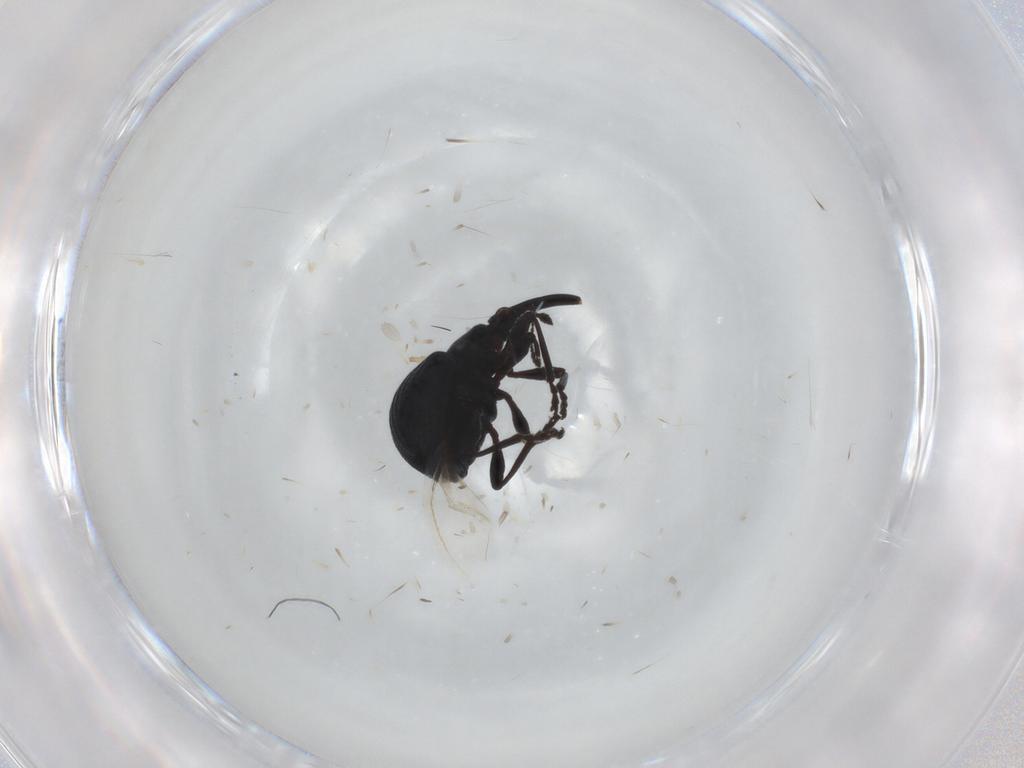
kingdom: Animalia
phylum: Arthropoda
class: Insecta
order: Coleoptera
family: Brentidae
